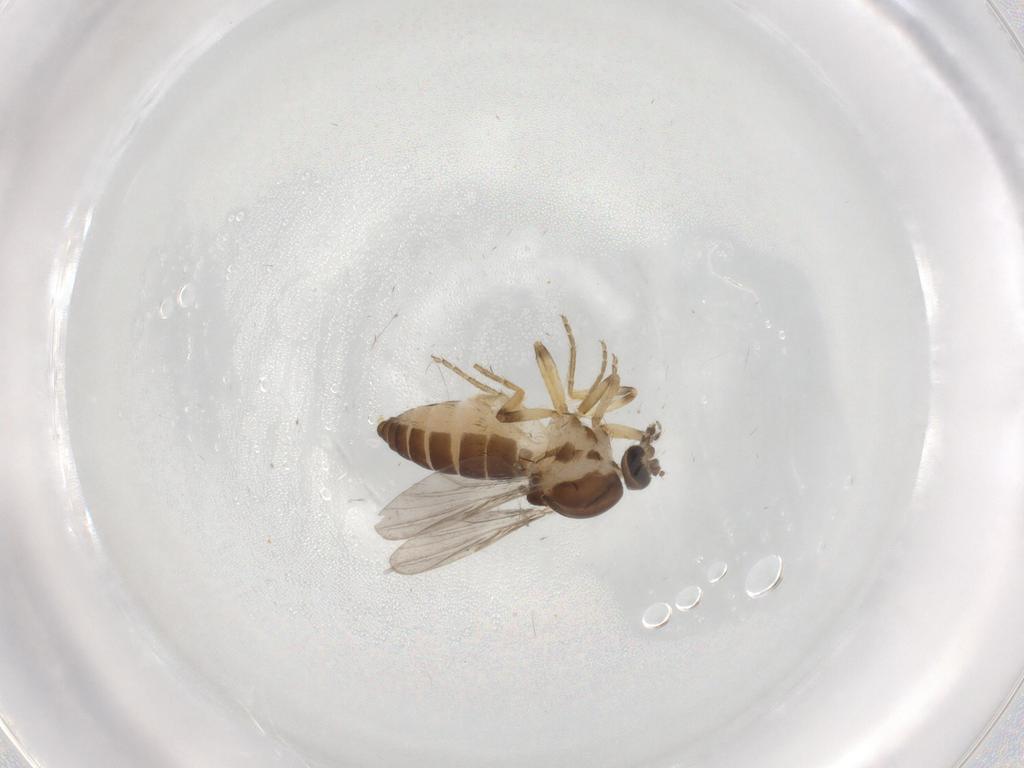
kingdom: Animalia
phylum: Arthropoda
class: Insecta
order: Diptera
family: Ceratopogonidae
